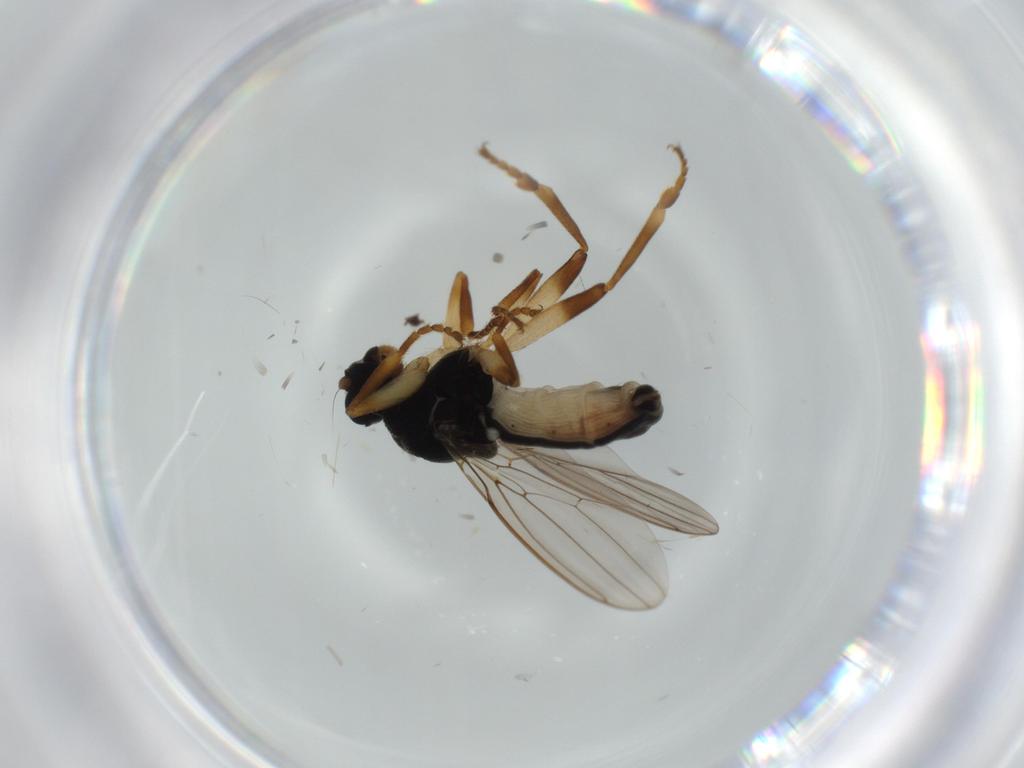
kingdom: Animalia
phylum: Arthropoda
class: Insecta
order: Diptera
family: Sphaeroceridae
